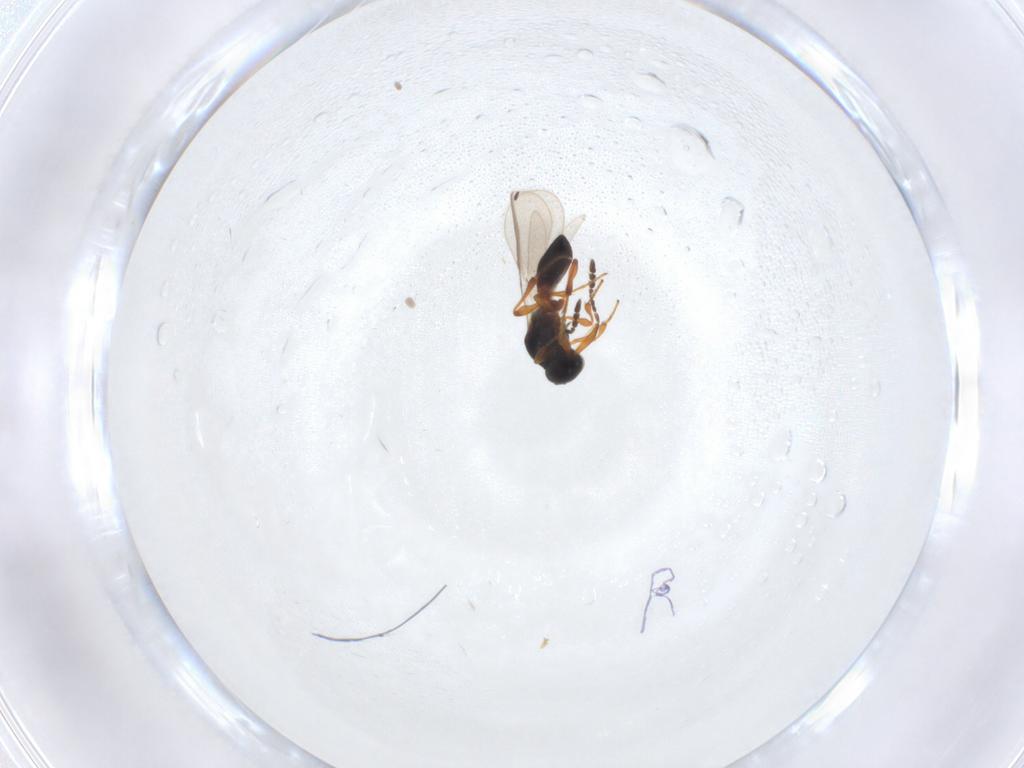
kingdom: Animalia
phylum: Arthropoda
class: Insecta
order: Hymenoptera
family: Platygastridae
